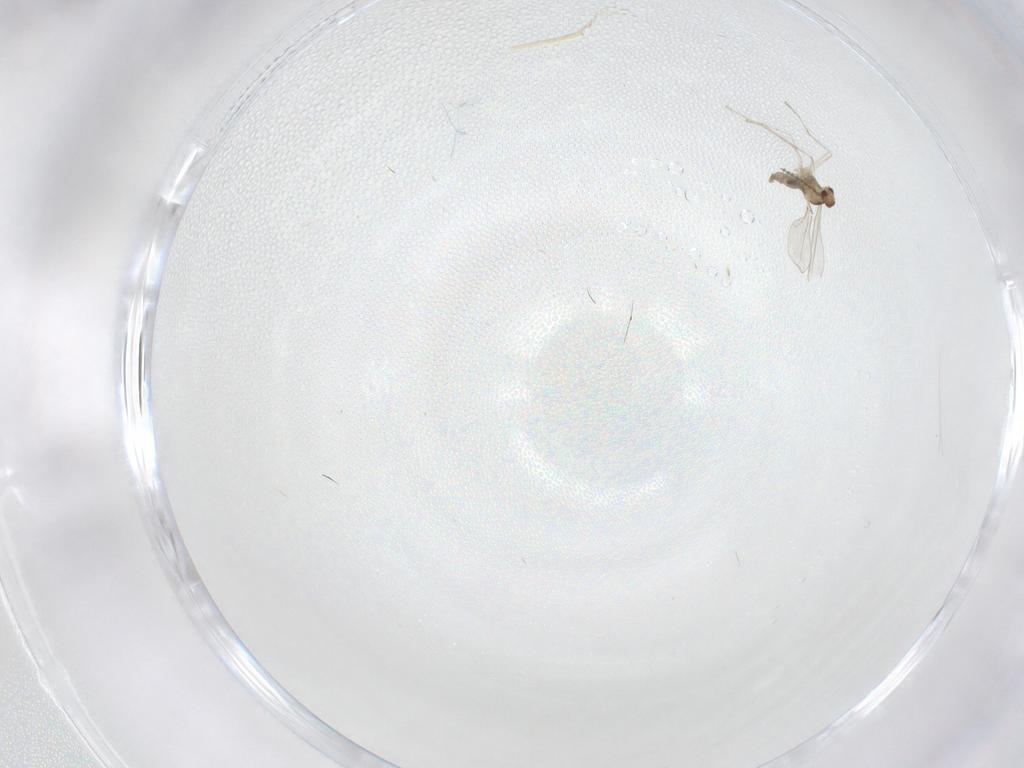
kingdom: Animalia
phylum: Arthropoda
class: Insecta
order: Diptera
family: Cecidomyiidae
